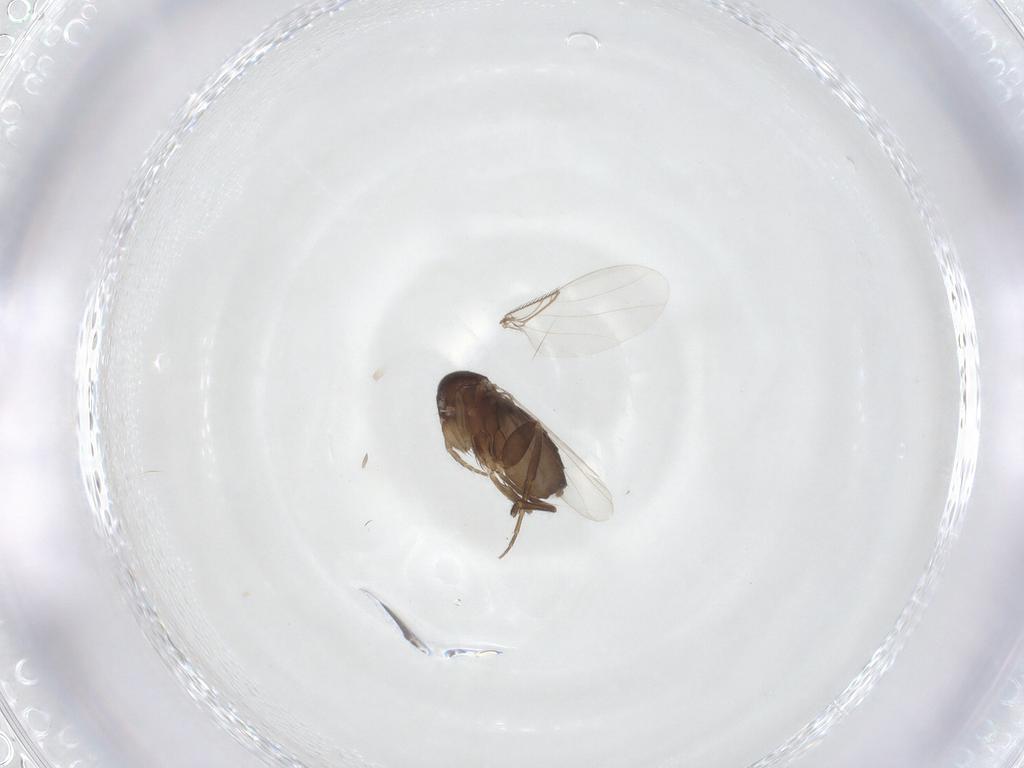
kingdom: Animalia
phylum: Arthropoda
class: Insecta
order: Diptera
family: Phoridae
